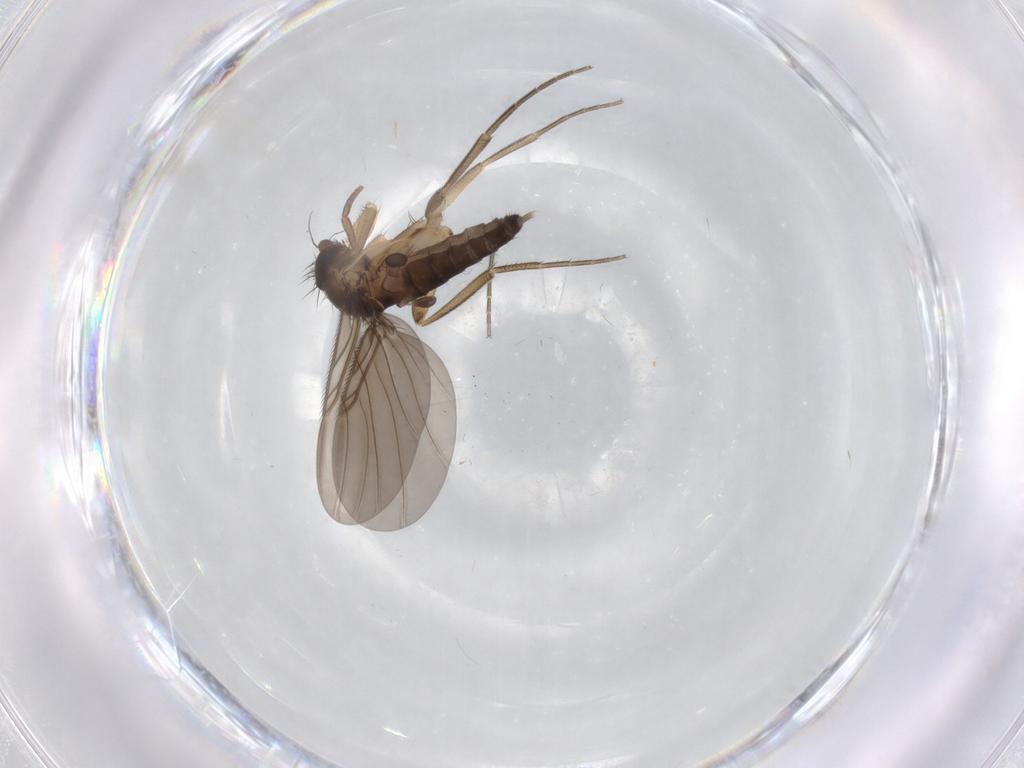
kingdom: Animalia
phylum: Arthropoda
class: Insecta
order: Diptera
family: Phoridae
